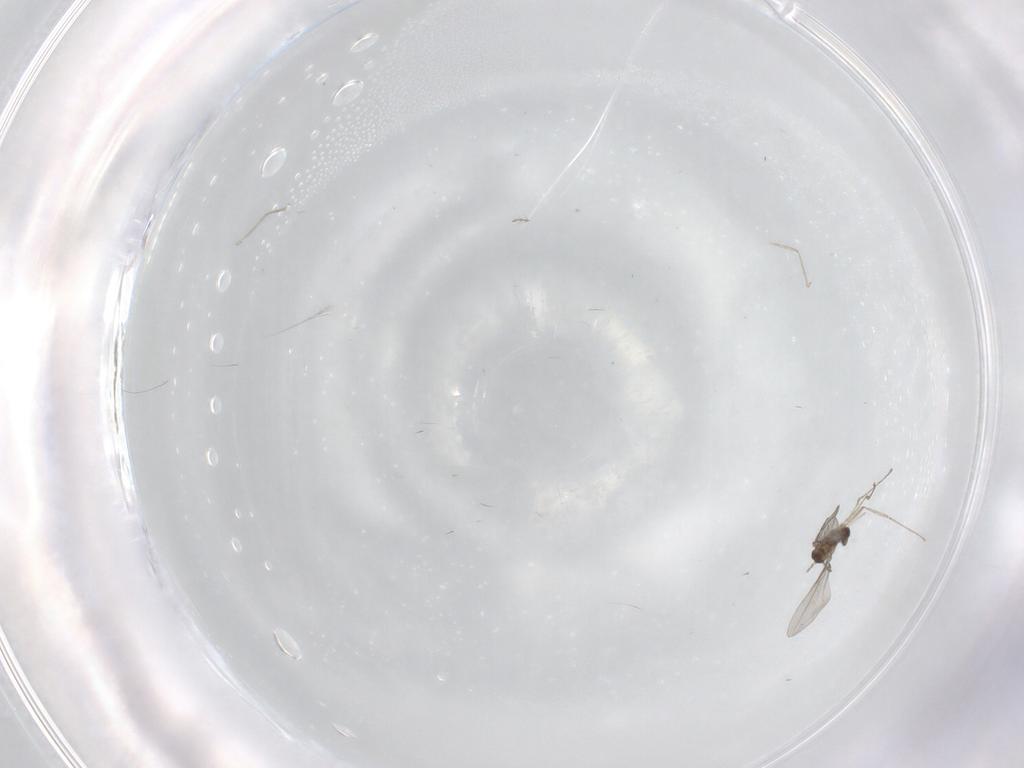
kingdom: Animalia
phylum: Arthropoda
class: Insecta
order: Diptera
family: Cecidomyiidae
